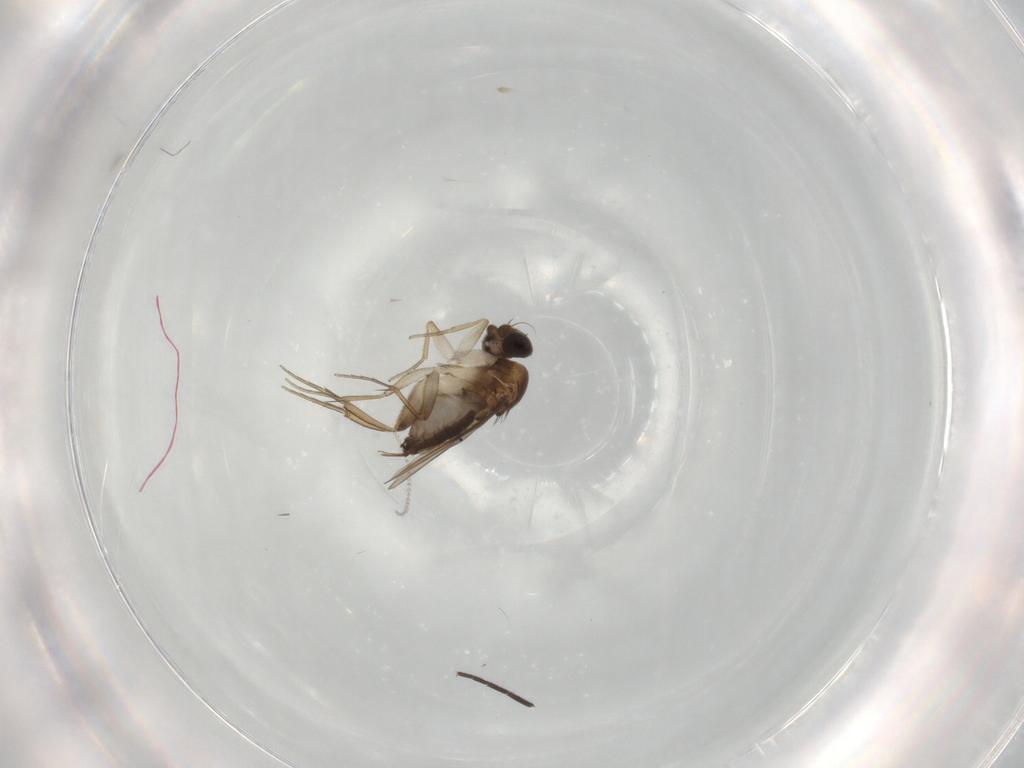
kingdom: Animalia
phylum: Arthropoda
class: Insecta
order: Diptera
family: Phoridae
